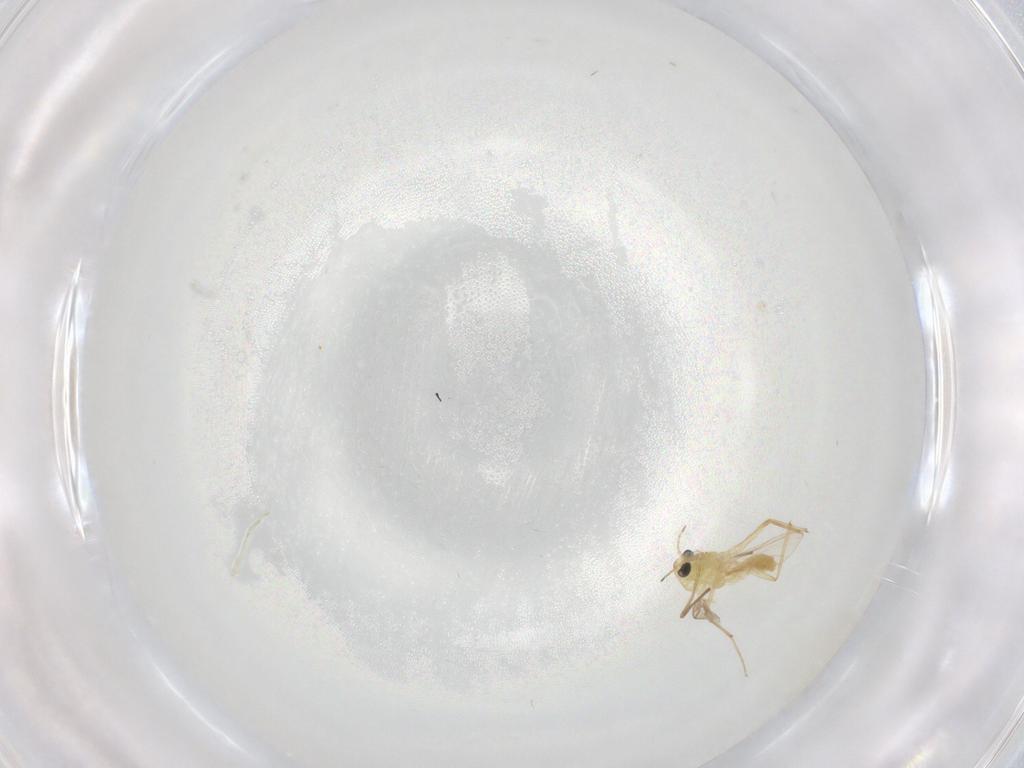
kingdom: Animalia
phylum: Arthropoda
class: Insecta
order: Diptera
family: Chironomidae
